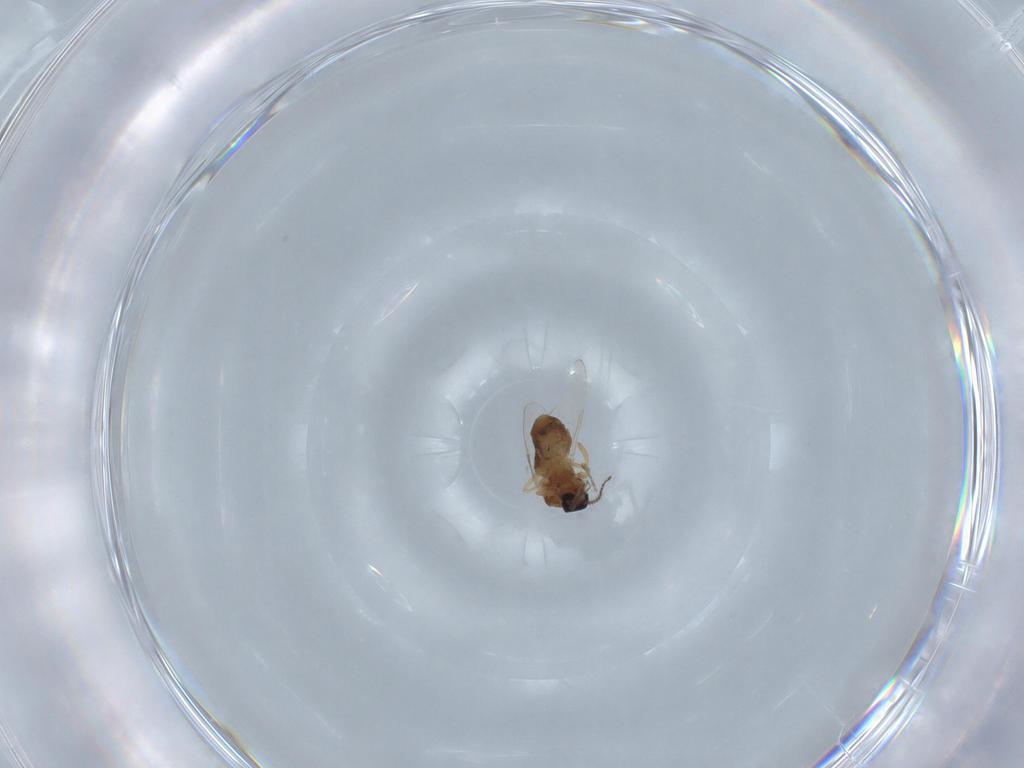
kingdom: Animalia
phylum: Arthropoda
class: Insecta
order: Diptera
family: Ceratopogonidae
